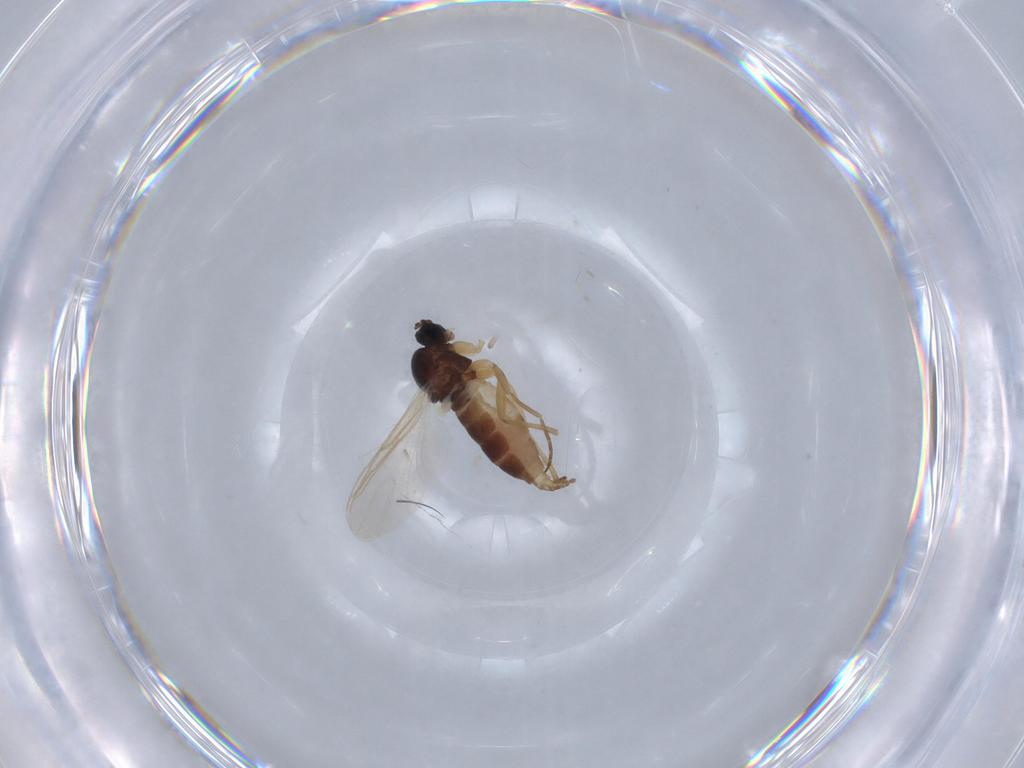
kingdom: Animalia
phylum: Arthropoda
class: Insecta
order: Diptera
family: Sciaridae
